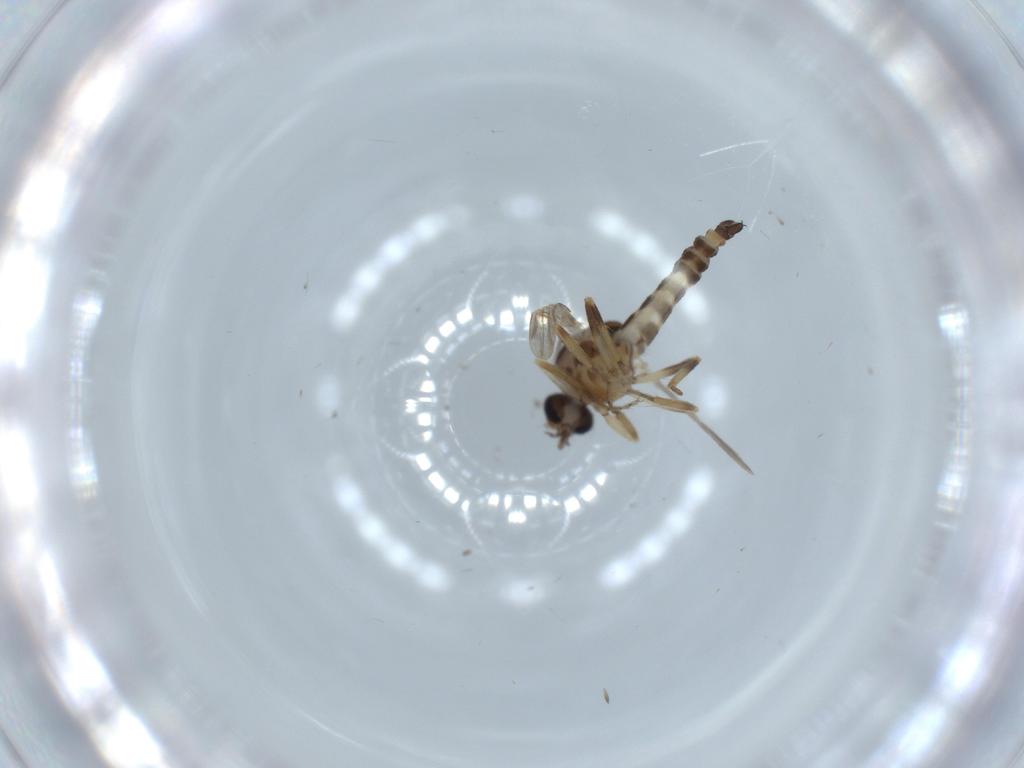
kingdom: Animalia
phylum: Arthropoda
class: Insecta
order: Diptera
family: Ceratopogonidae
